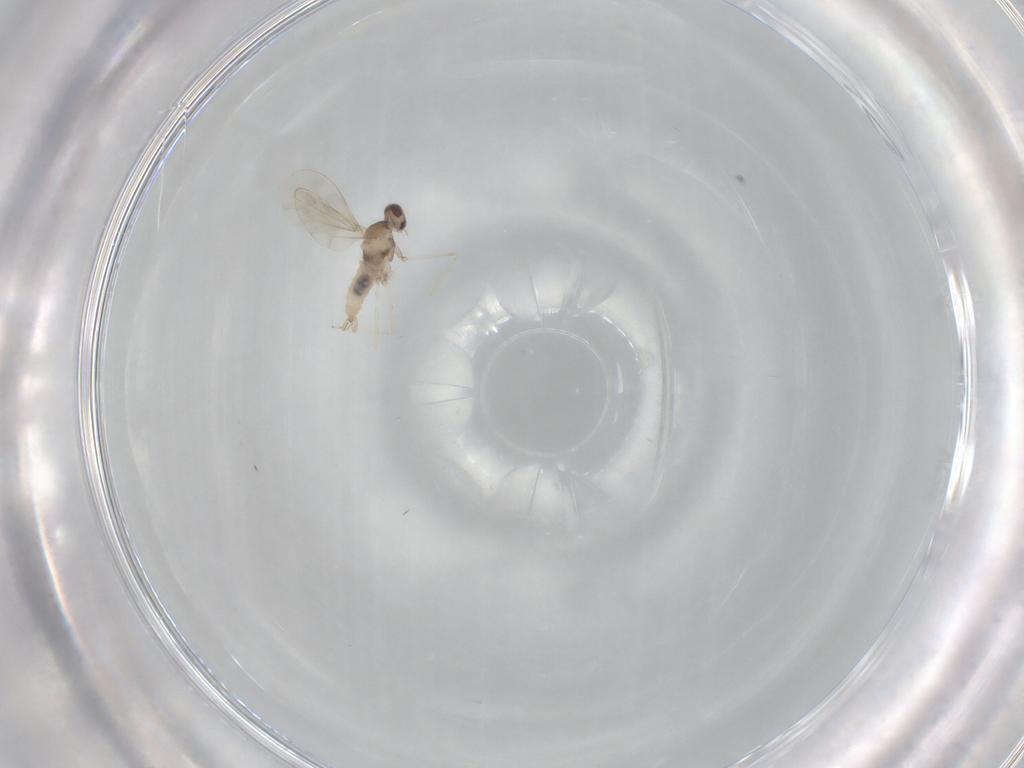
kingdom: Animalia
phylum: Arthropoda
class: Insecta
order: Diptera
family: Cecidomyiidae
